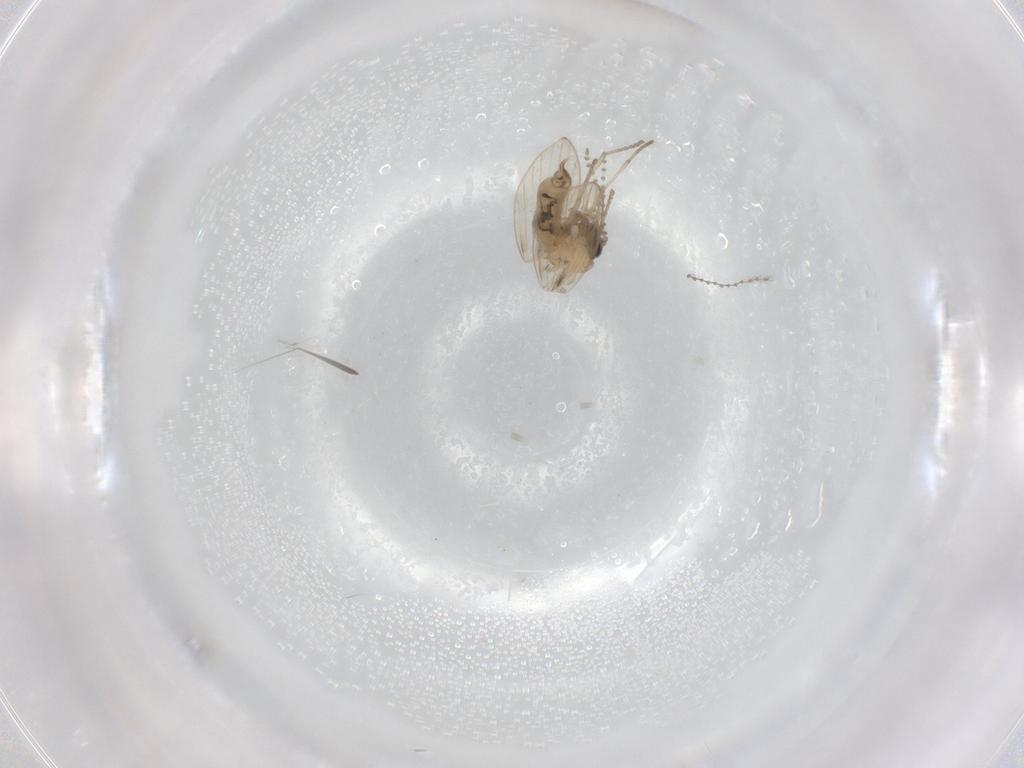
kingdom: Animalia
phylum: Arthropoda
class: Insecta
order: Diptera
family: Psychodidae
